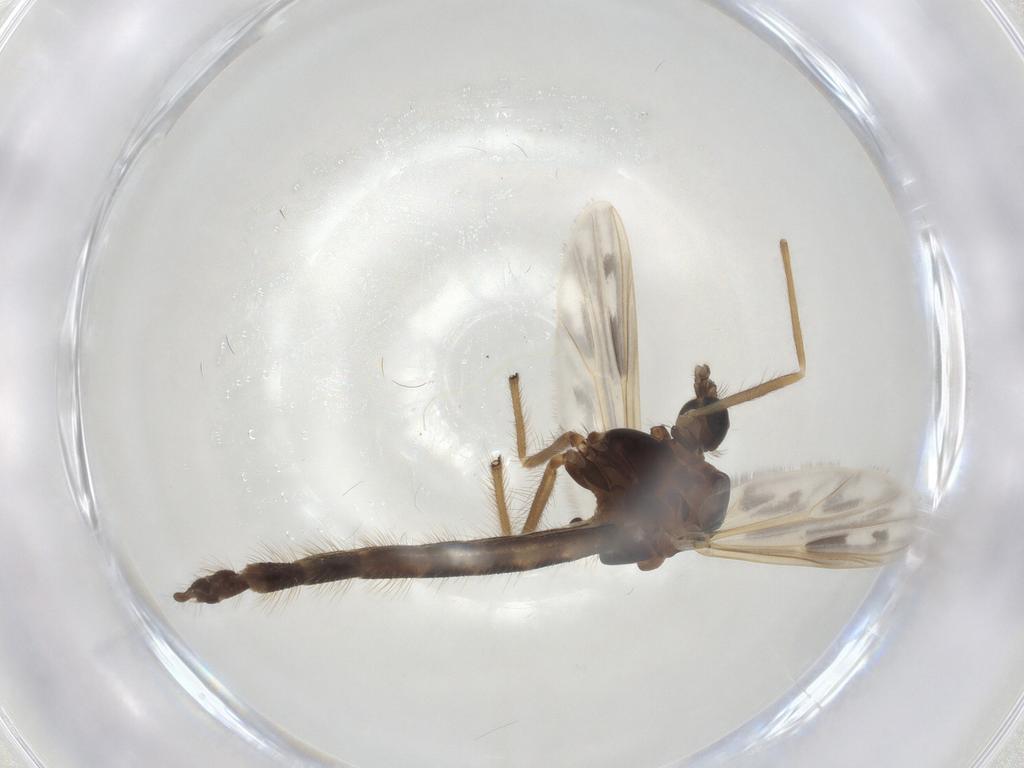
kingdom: Animalia
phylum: Arthropoda
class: Insecta
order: Diptera
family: Chironomidae
